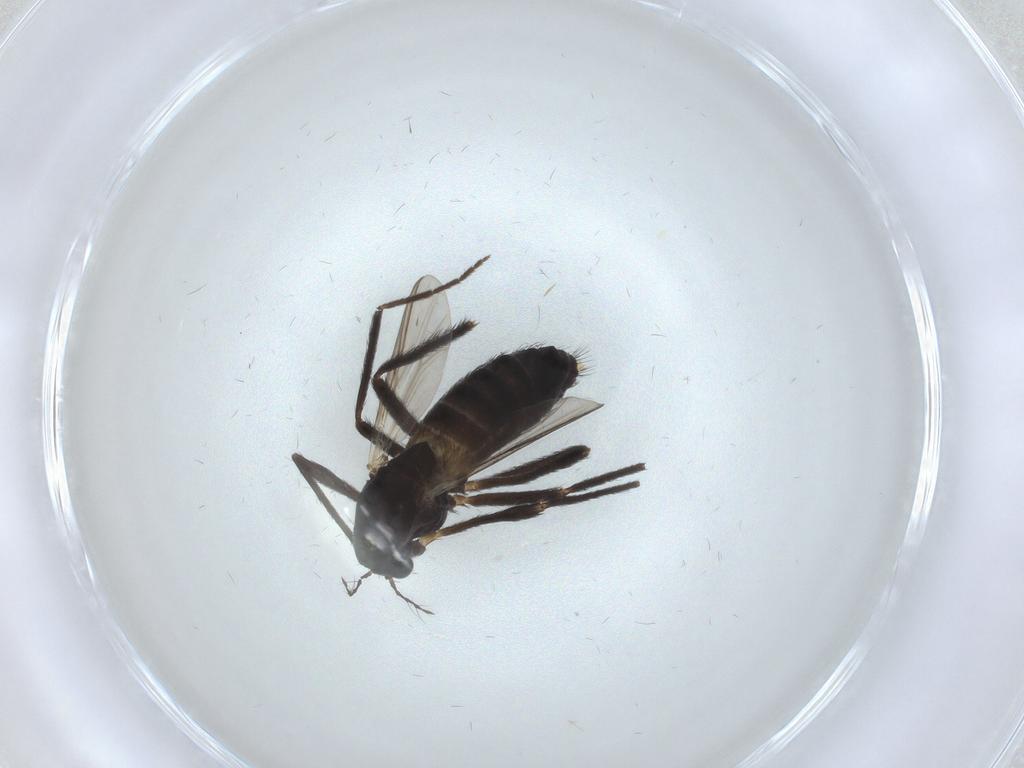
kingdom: Animalia
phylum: Arthropoda
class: Insecta
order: Diptera
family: Chironomidae
